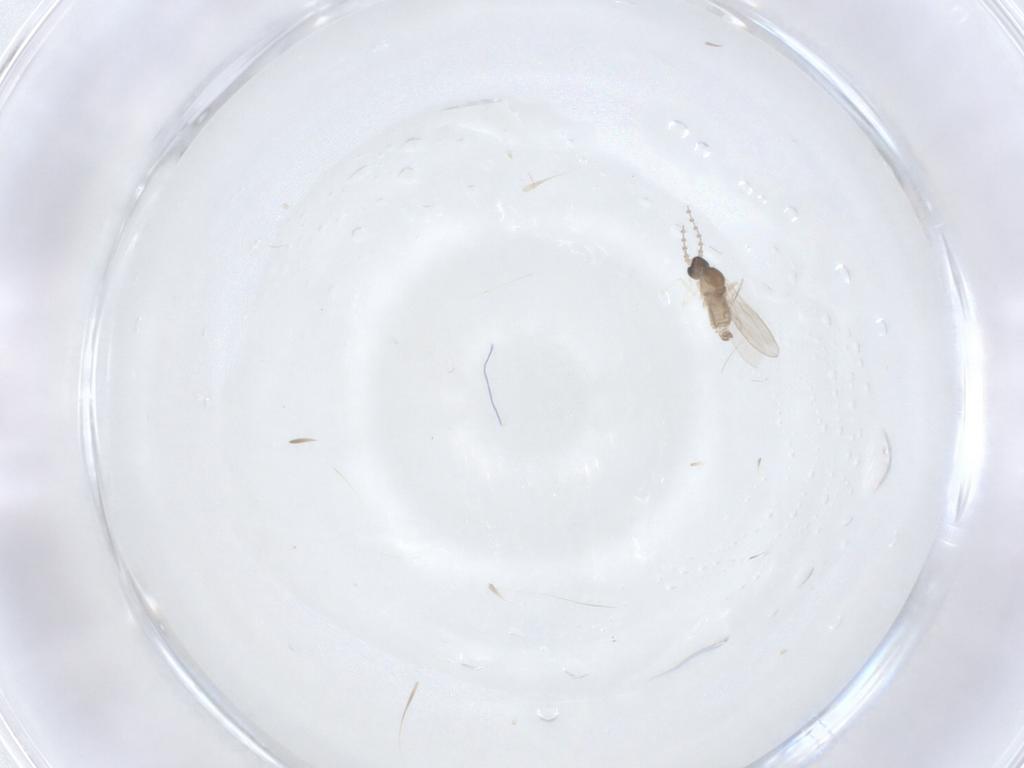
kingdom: Animalia
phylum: Arthropoda
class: Insecta
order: Diptera
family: Cecidomyiidae
